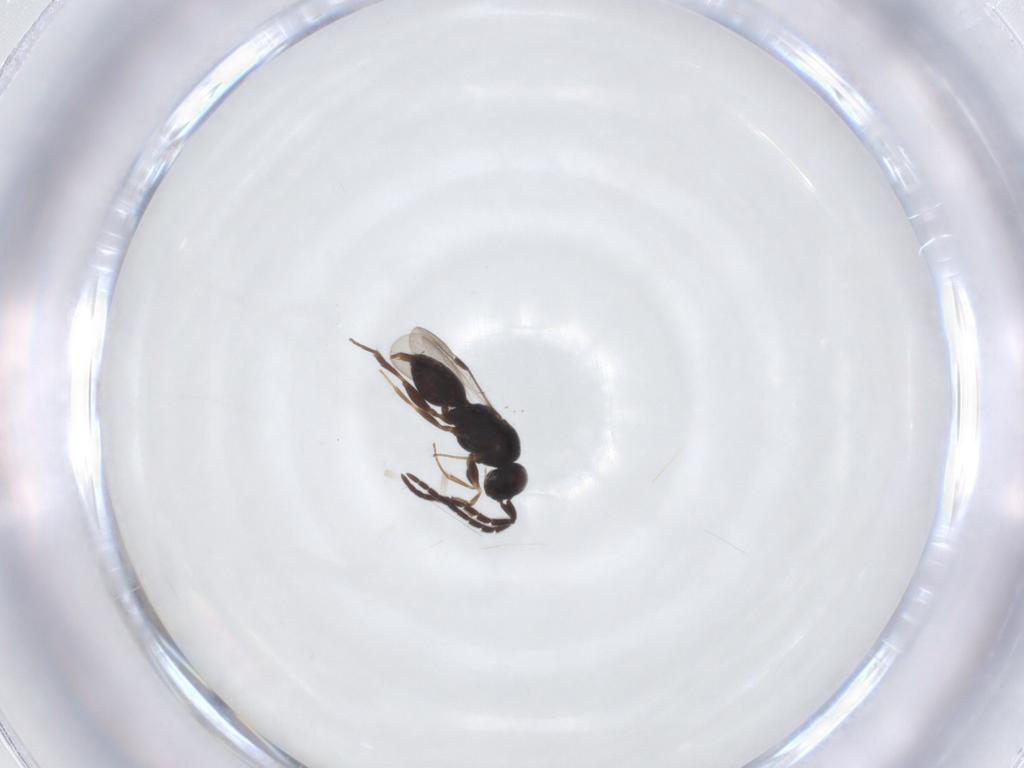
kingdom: Animalia
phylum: Arthropoda
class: Insecta
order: Hymenoptera
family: Megaspilidae
